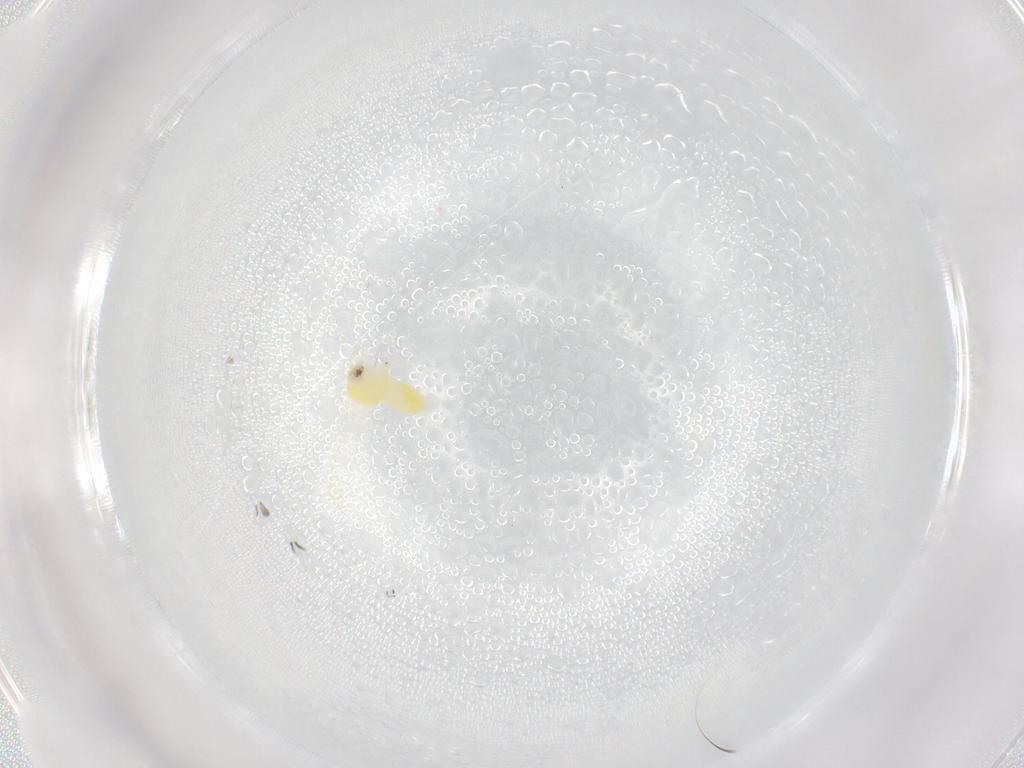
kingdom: Animalia
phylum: Arthropoda
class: Insecta
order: Hemiptera
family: Aleyrodidae
